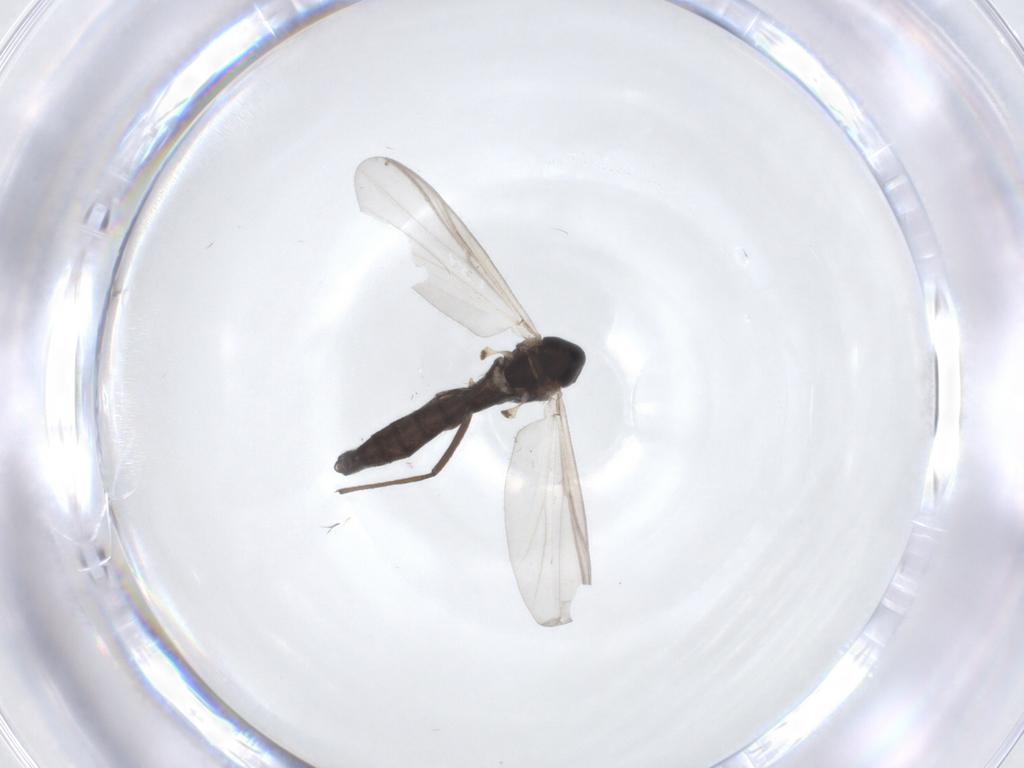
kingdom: Animalia
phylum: Arthropoda
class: Insecta
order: Diptera
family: Chironomidae
